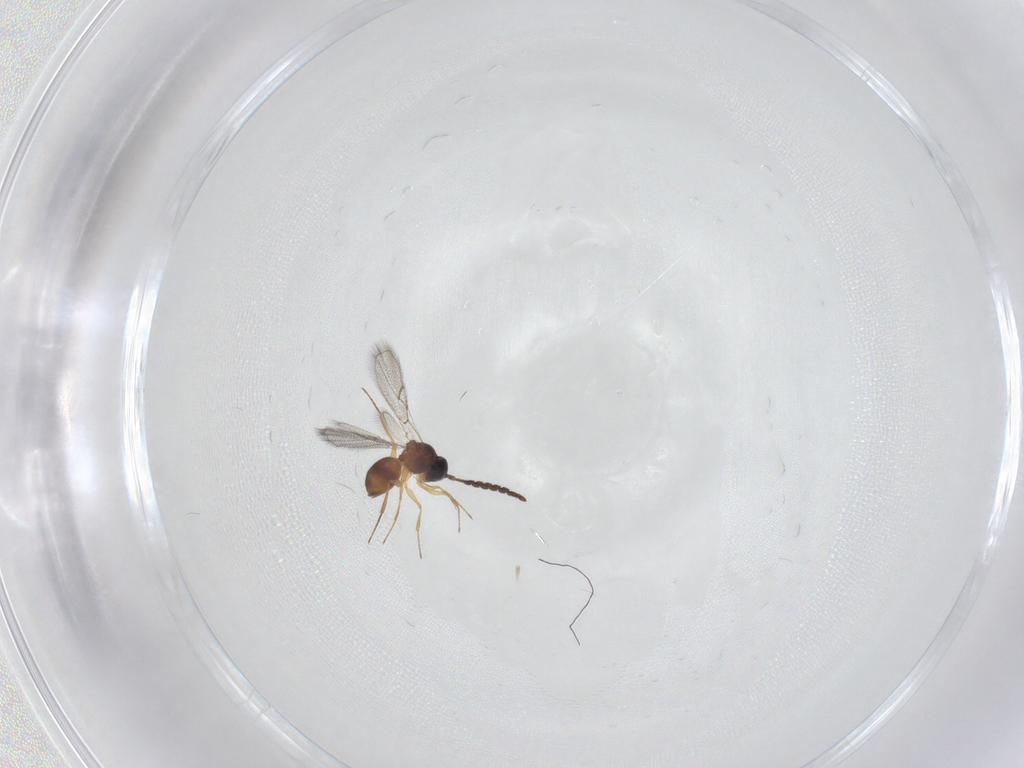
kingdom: Animalia
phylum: Arthropoda
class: Insecta
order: Hymenoptera
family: Figitidae
